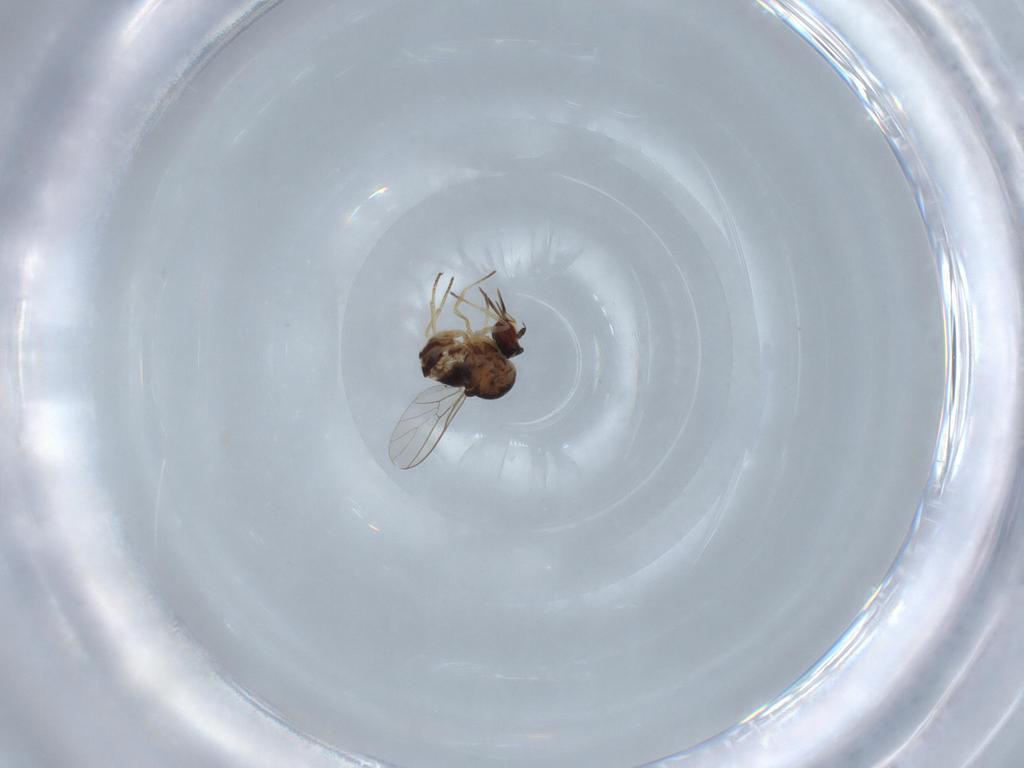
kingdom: Animalia
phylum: Arthropoda
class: Insecta
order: Diptera
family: Mythicomyiidae
